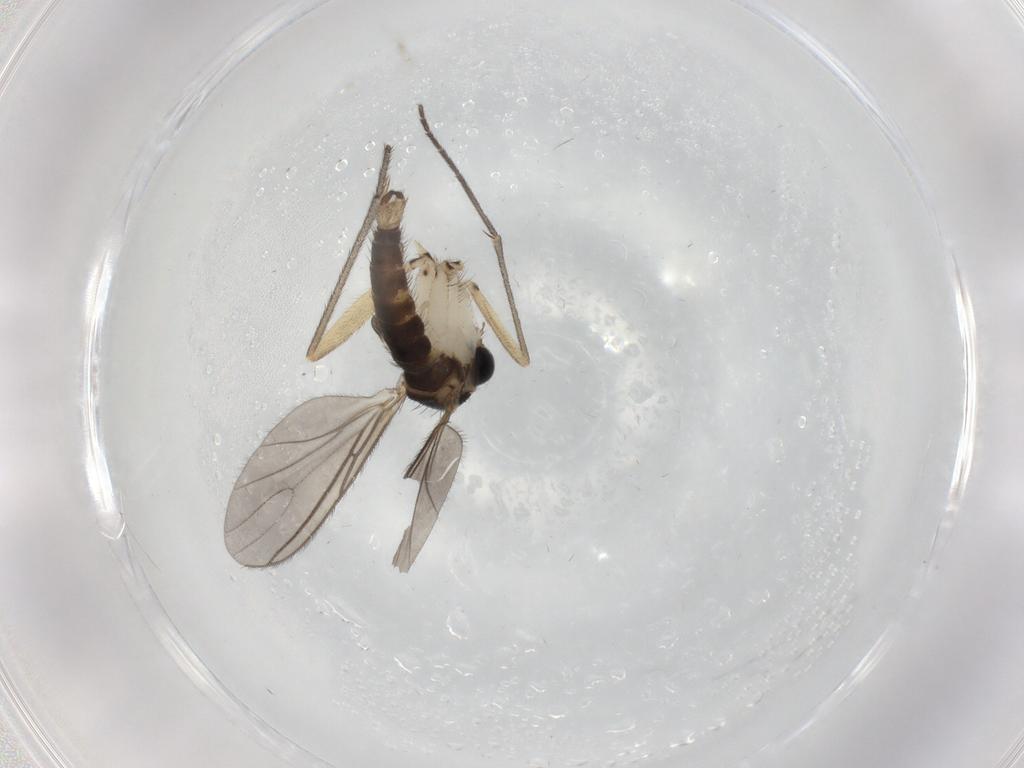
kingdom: Animalia
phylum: Arthropoda
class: Insecta
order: Diptera
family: Sciaridae
